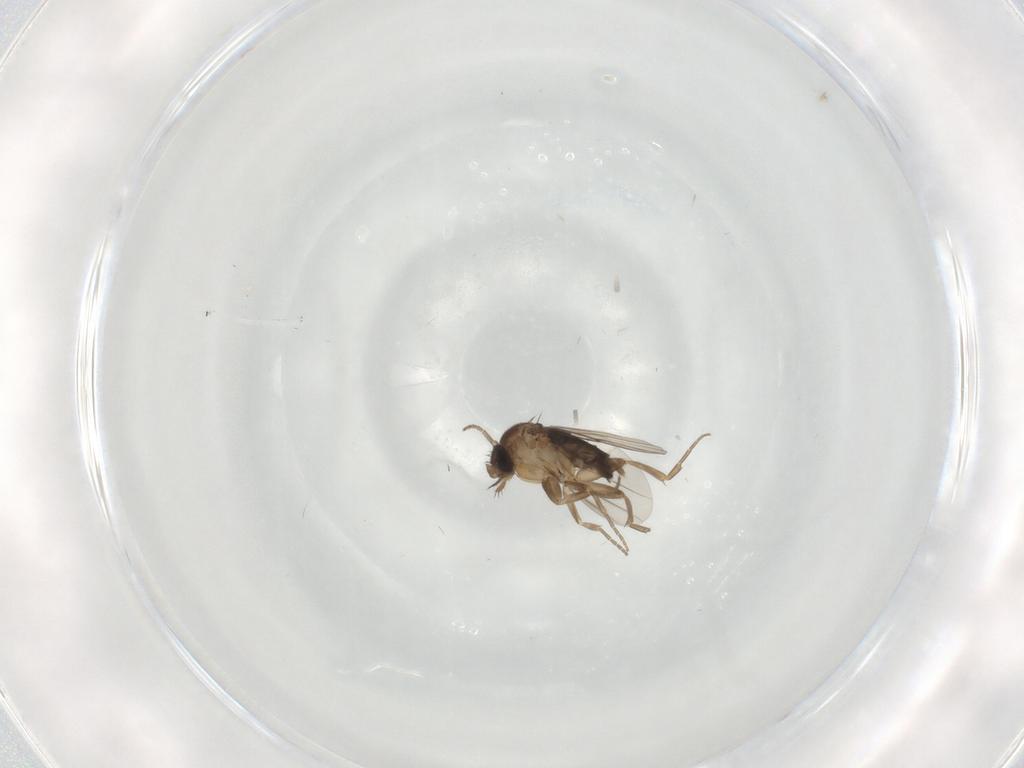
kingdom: Animalia
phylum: Arthropoda
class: Insecta
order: Diptera
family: Phoridae
